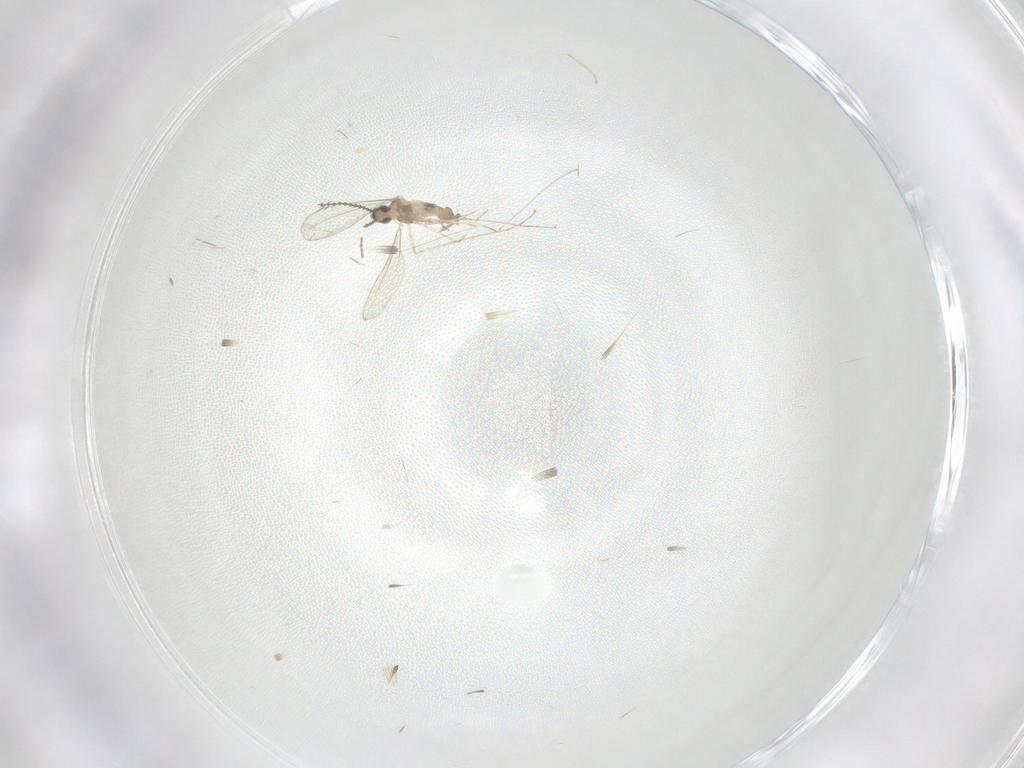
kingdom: Animalia
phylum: Arthropoda
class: Insecta
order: Diptera
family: Cecidomyiidae
